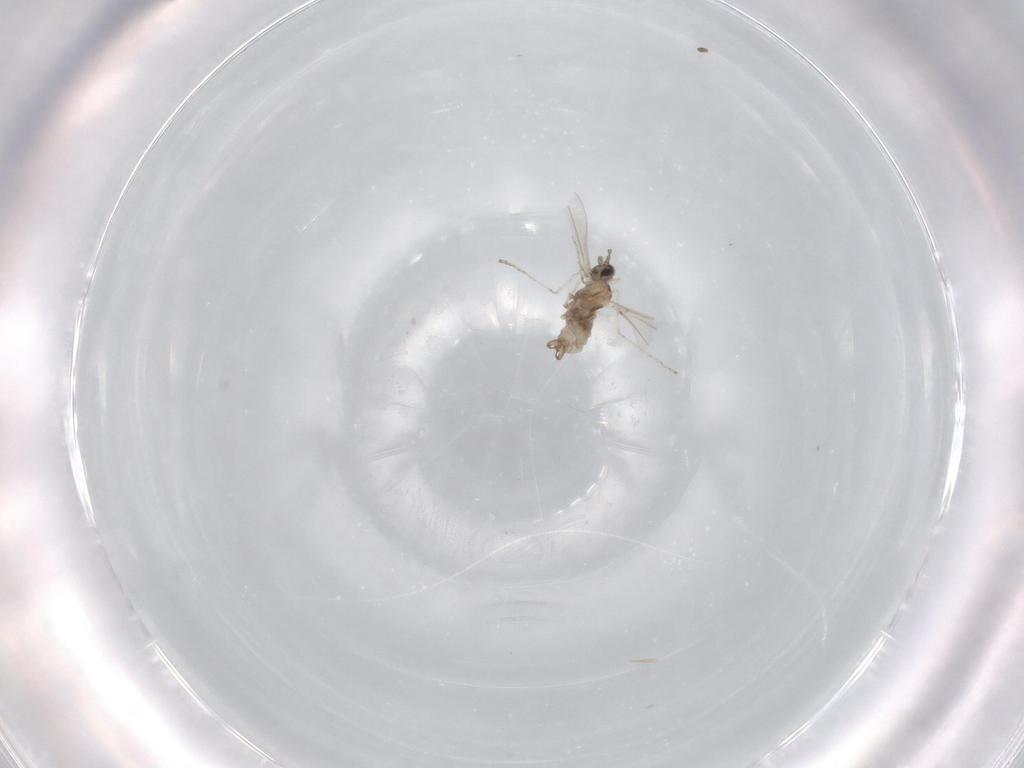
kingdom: Animalia
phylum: Arthropoda
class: Insecta
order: Diptera
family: Cecidomyiidae
